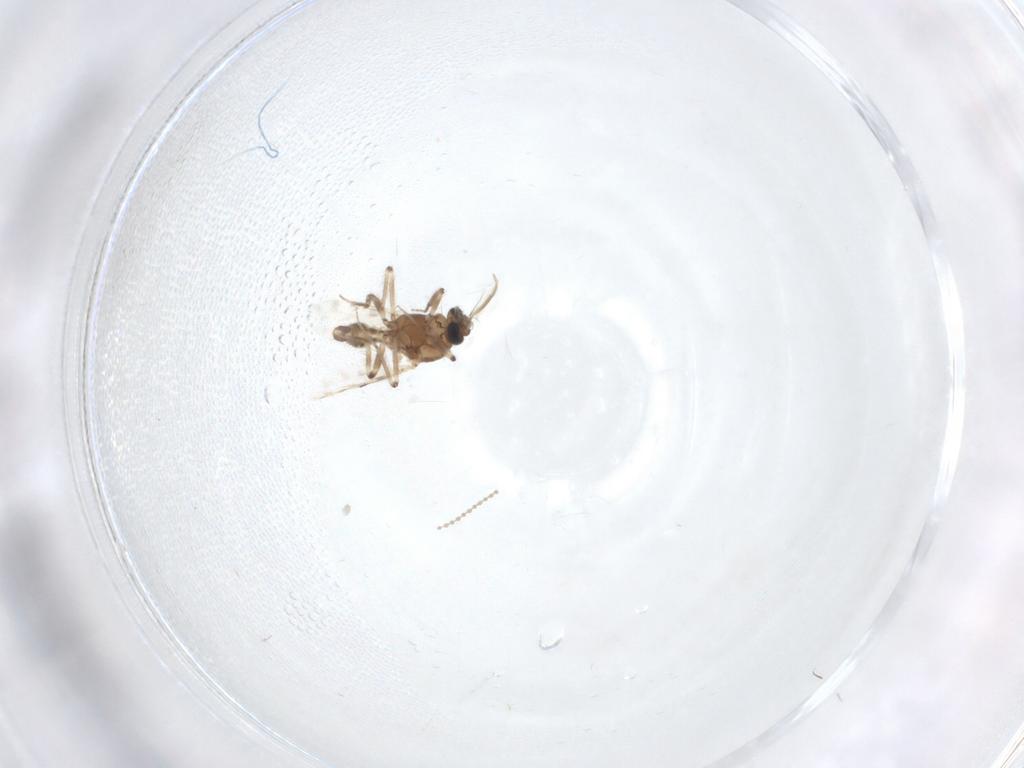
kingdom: Animalia
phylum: Arthropoda
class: Insecta
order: Diptera
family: Cecidomyiidae
